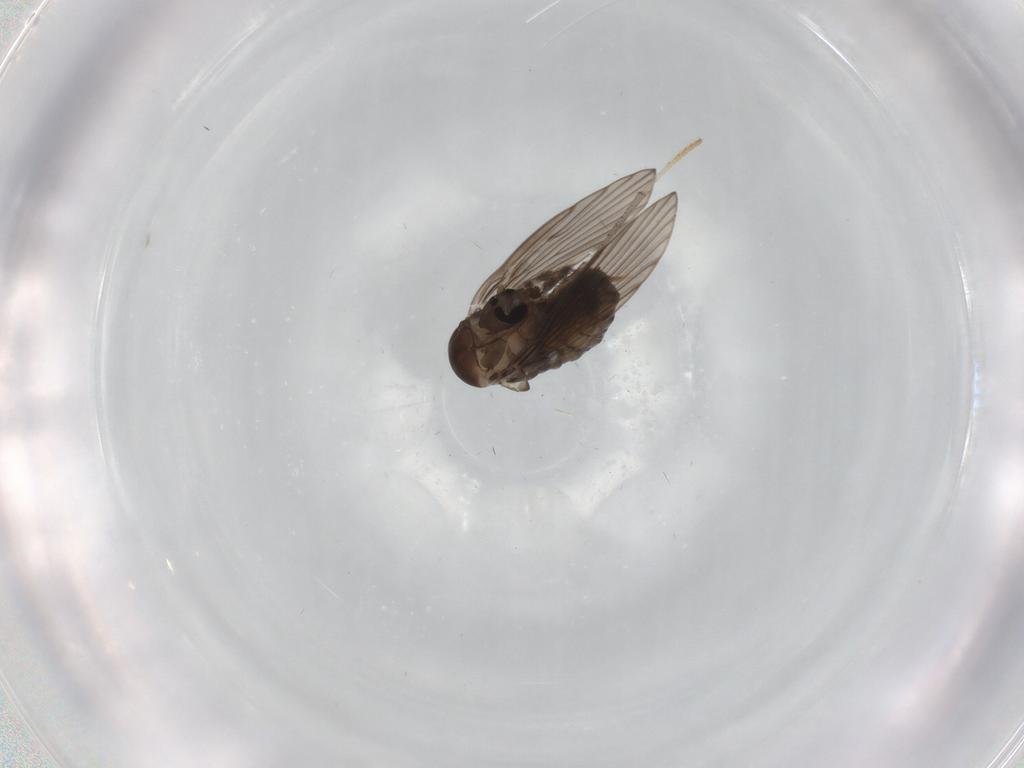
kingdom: Animalia
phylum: Arthropoda
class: Insecta
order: Diptera
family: Psychodidae
